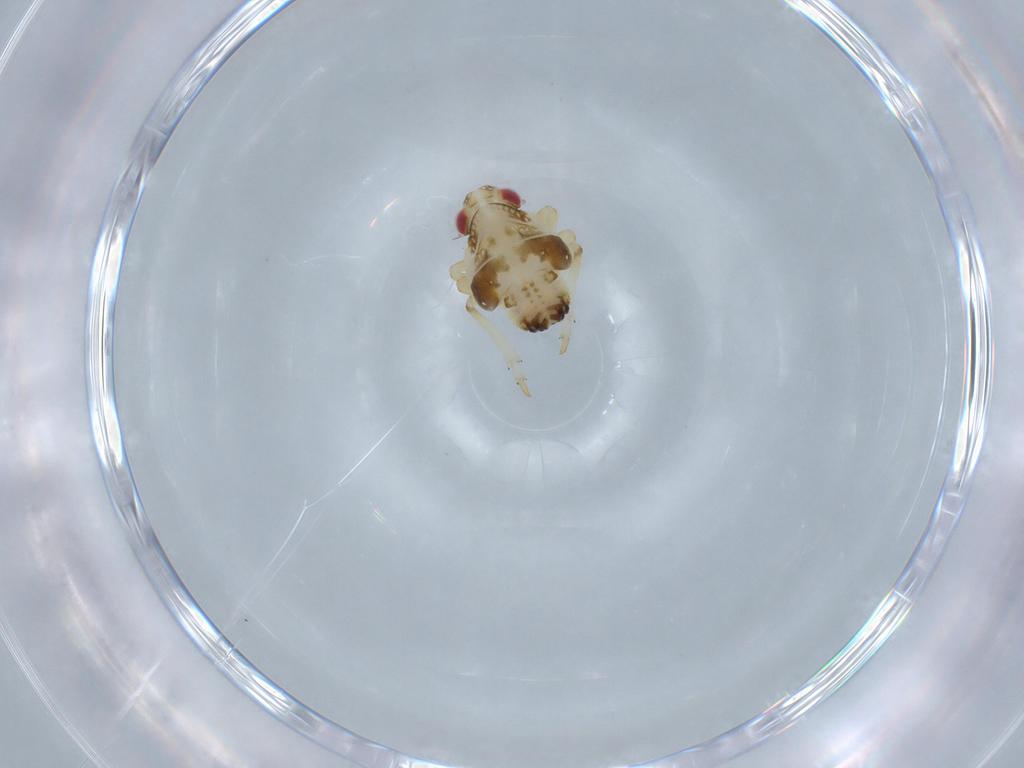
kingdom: Animalia
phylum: Arthropoda
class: Insecta
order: Hemiptera
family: Issidae
